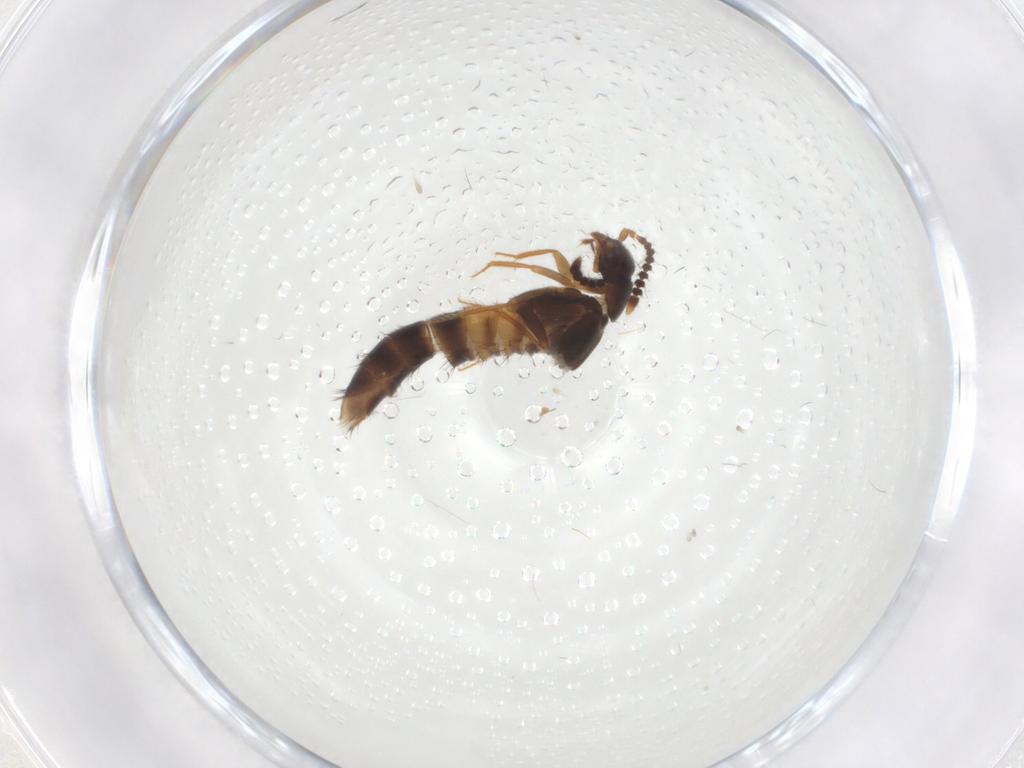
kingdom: Animalia
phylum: Arthropoda
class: Insecta
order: Coleoptera
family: Staphylinidae
